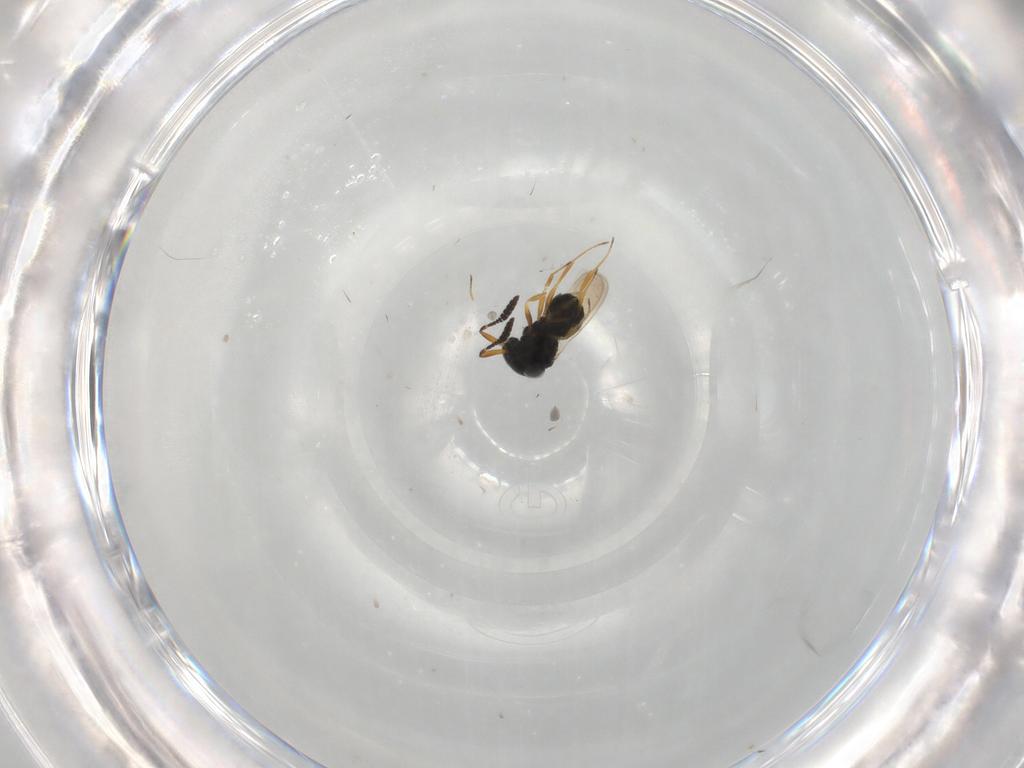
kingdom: Animalia
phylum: Arthropoda
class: Insecta
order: Hymenoptera
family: Scelionidae
